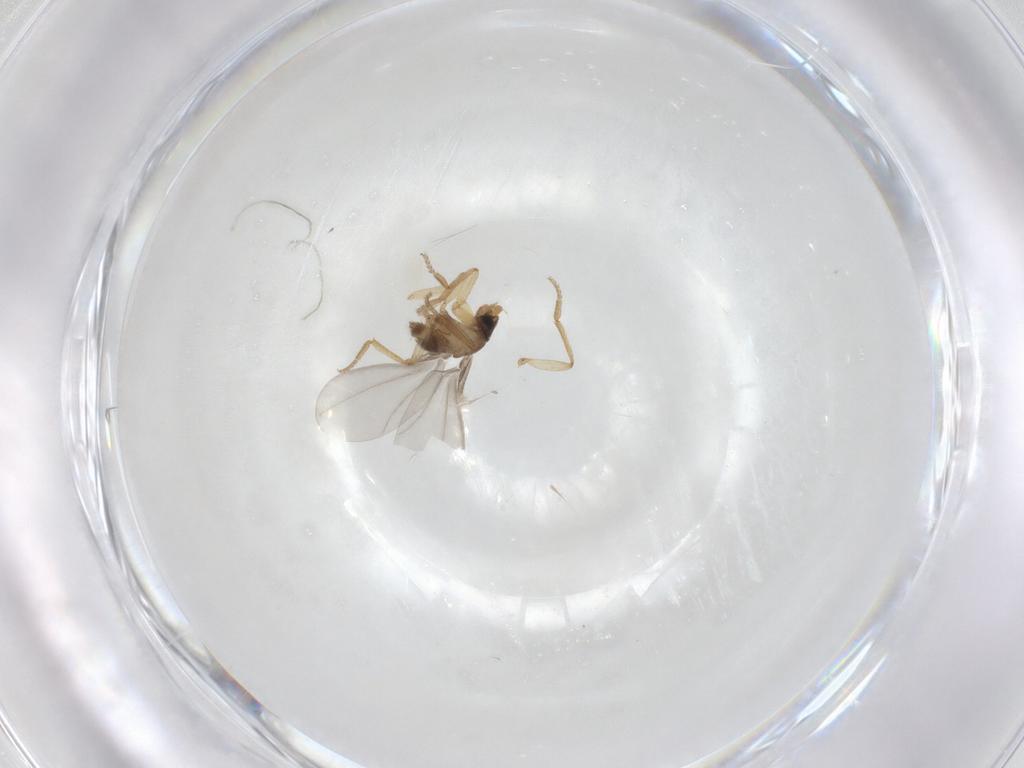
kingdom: Animalia
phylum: Arthropoda
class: Insecta
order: Diptera
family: Phoridae
